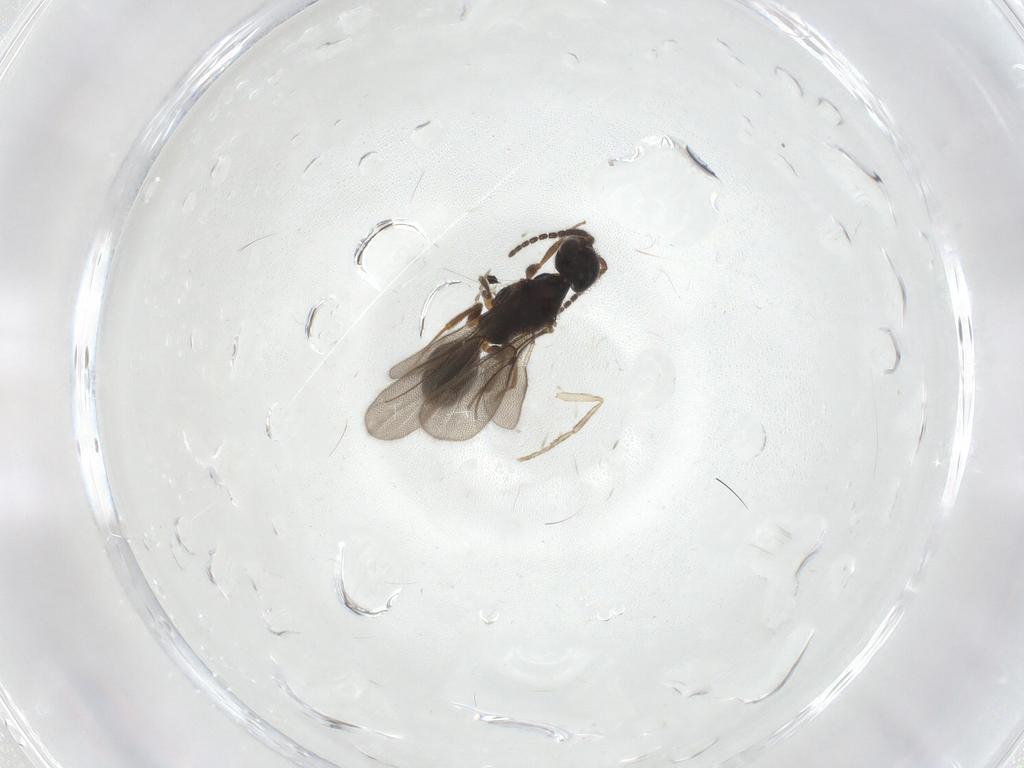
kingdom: Animalia
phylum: Arthropoda
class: Insecta
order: Hymenoptera
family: Bethylidae
